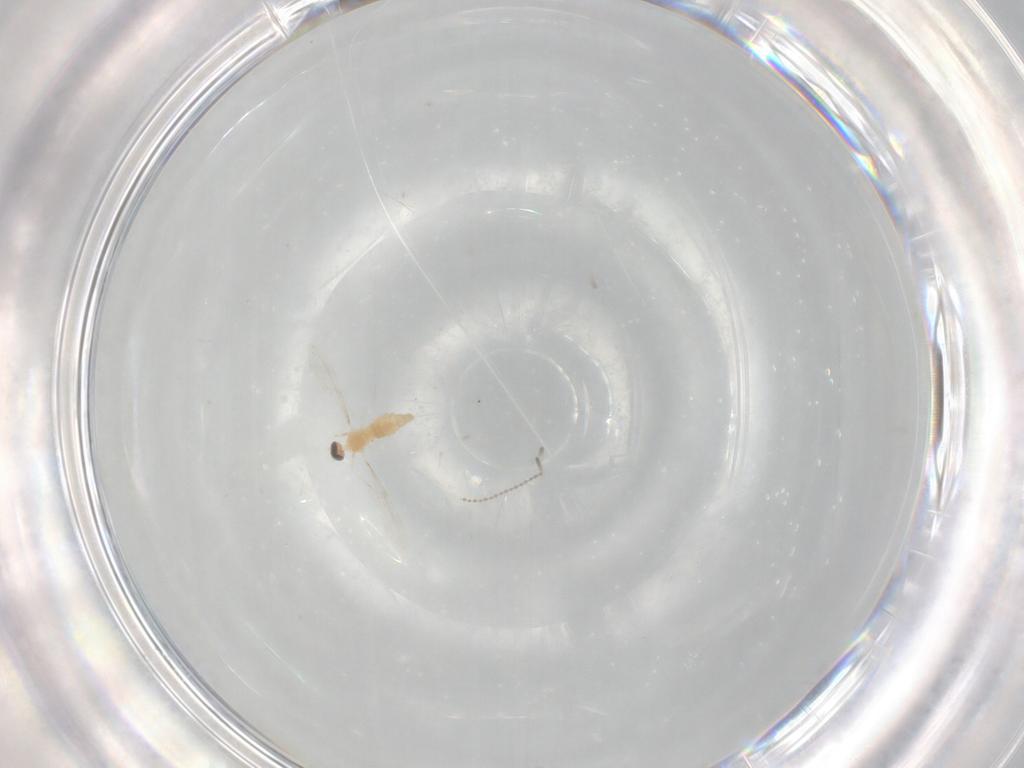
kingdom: Animalia
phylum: Arthropoda
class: Insecta
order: Diptera
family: Cecidomyiidae
